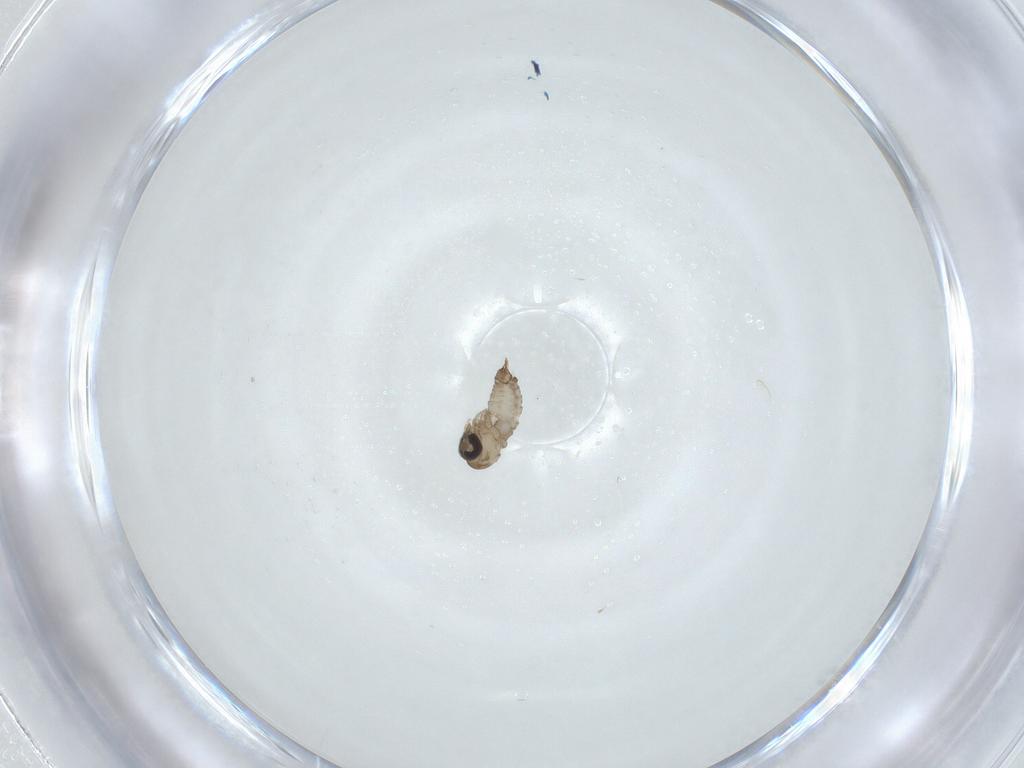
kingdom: Animalia
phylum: Arthropoda
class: Insecta
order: Diptera
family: Psychodidae
